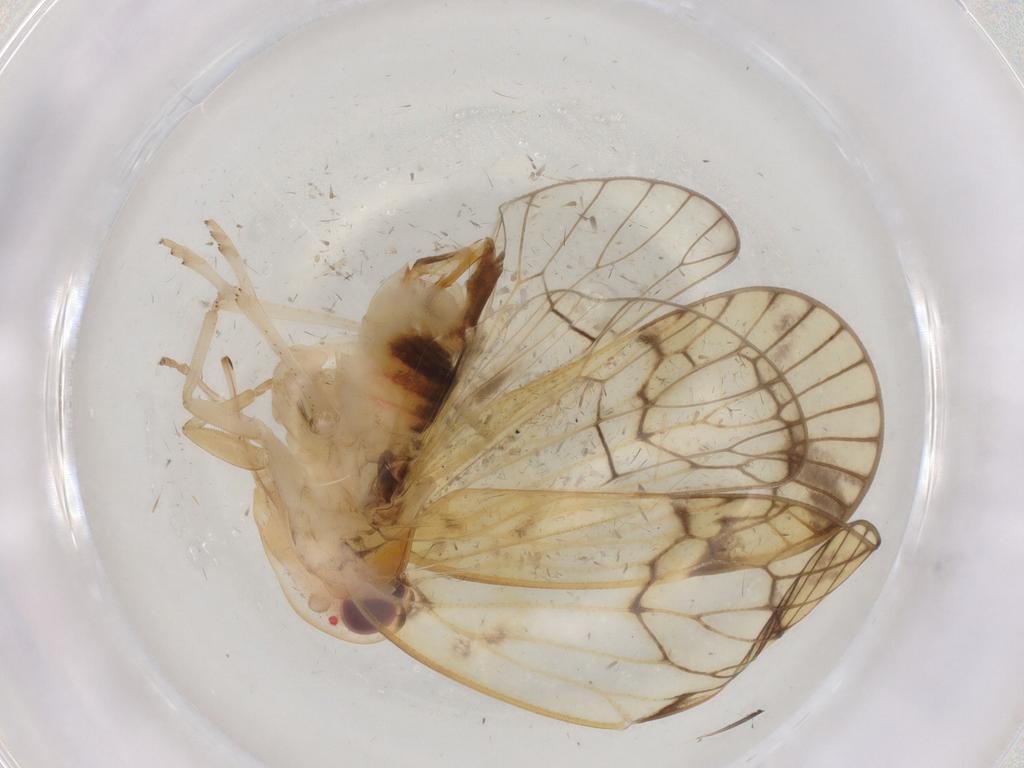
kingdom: Animalia
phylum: Arthropoda
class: Insecta
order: Hemiptera
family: Cixiidae
